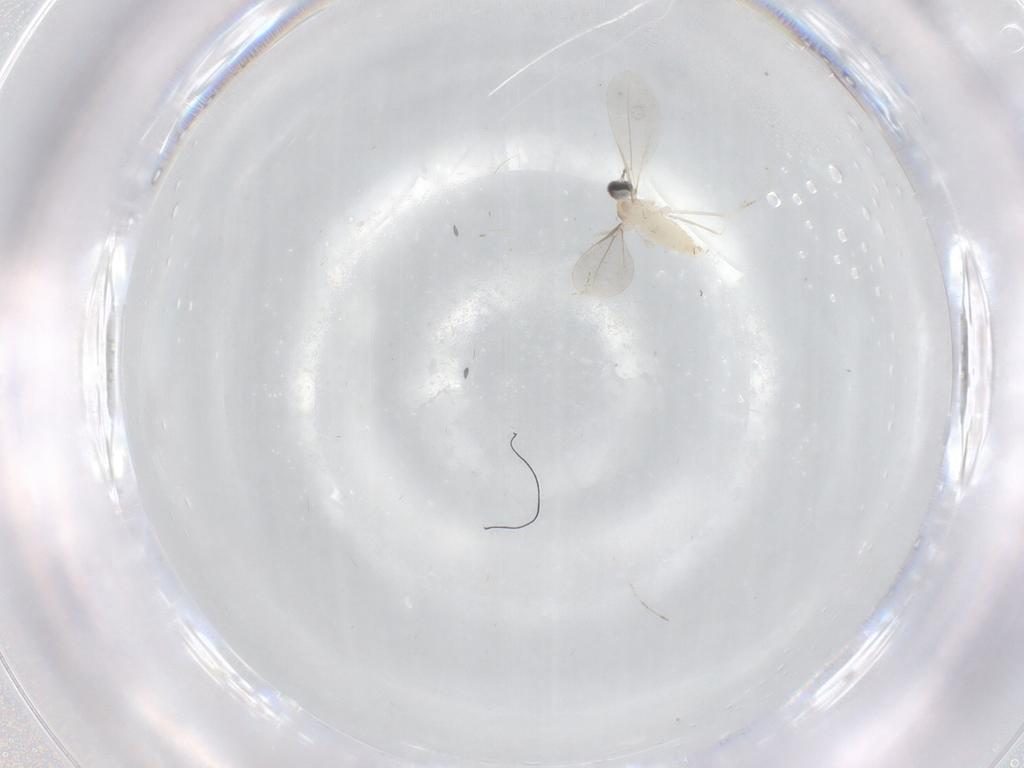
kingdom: Animalia
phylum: Arthropoda
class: Insecta
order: Diptera
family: Cecidomyiidae
